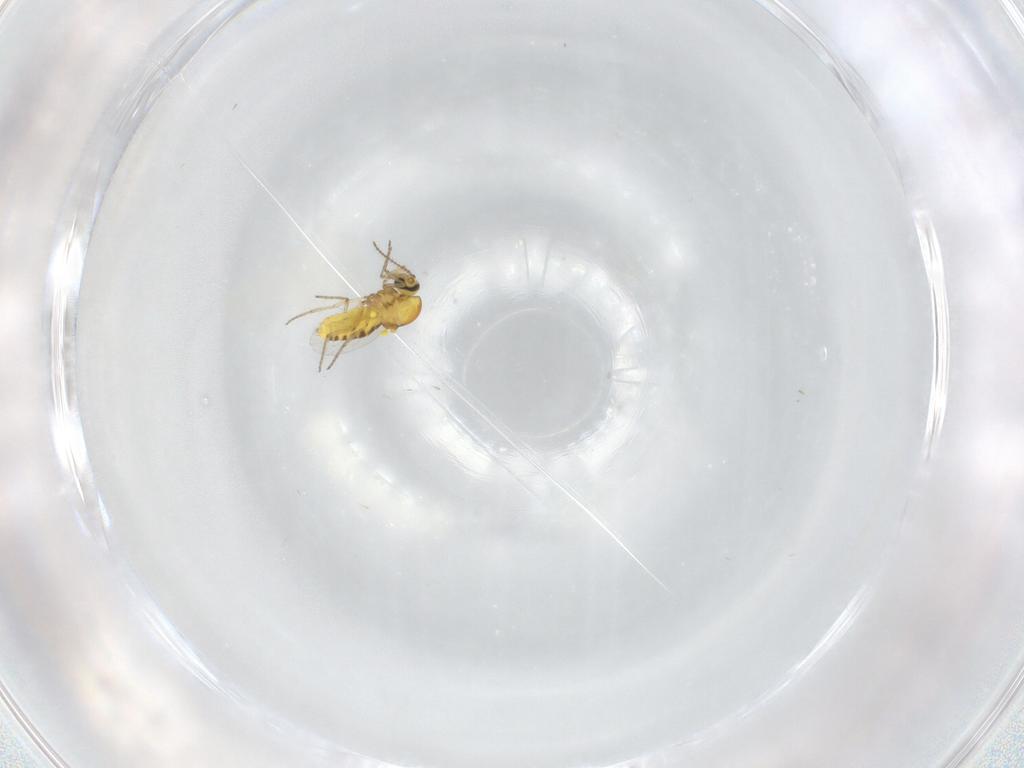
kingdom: Animalia
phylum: Arthropoda
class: Insecta
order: Diptera
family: Ceratopogonidae
